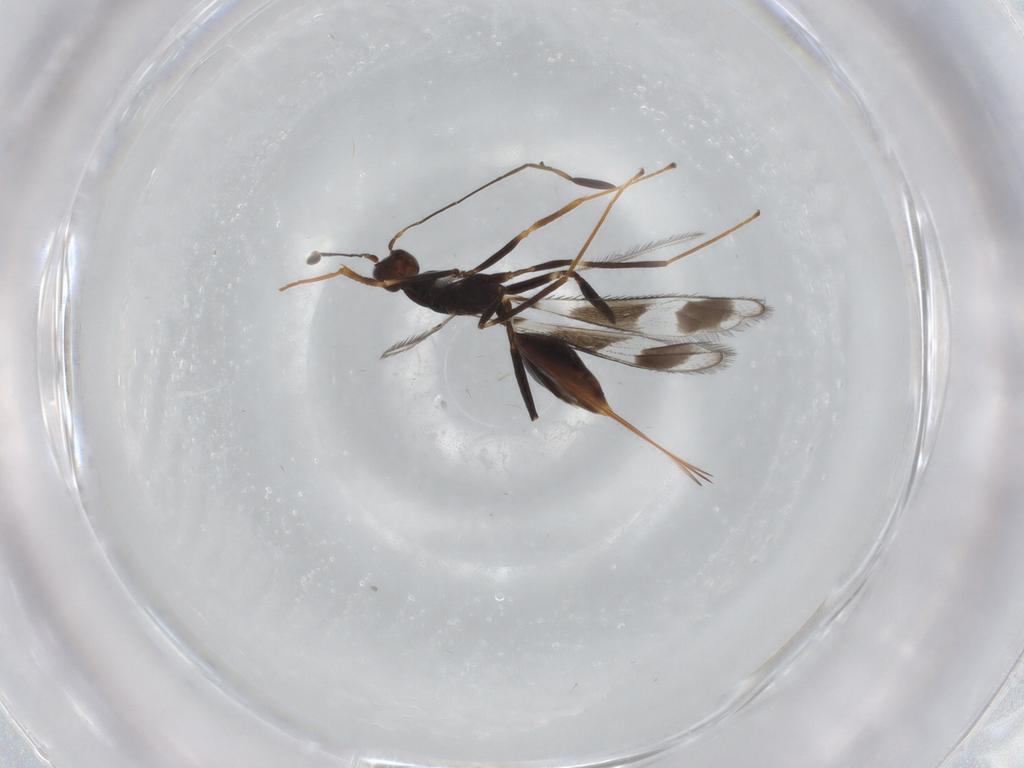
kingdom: Animalia
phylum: Arthropoda
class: Insecta
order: Hymenoptera
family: Mymaridae
